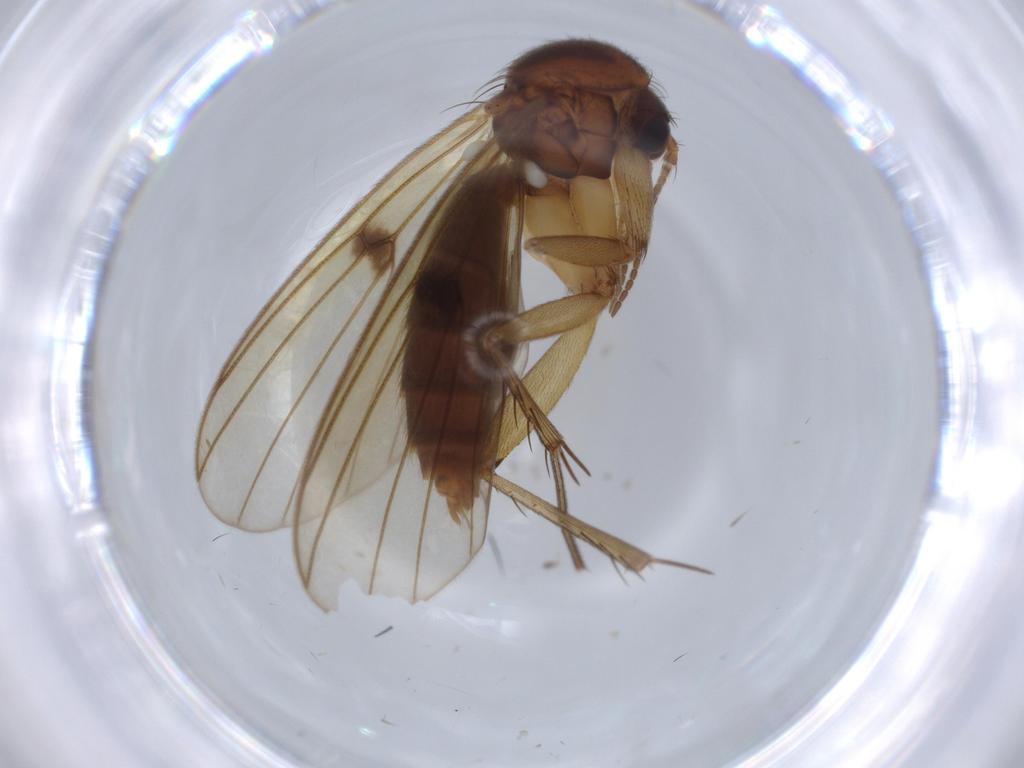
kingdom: Animalia
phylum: Arthropoda
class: Insecta
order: Diptera
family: Mycetophilidae
